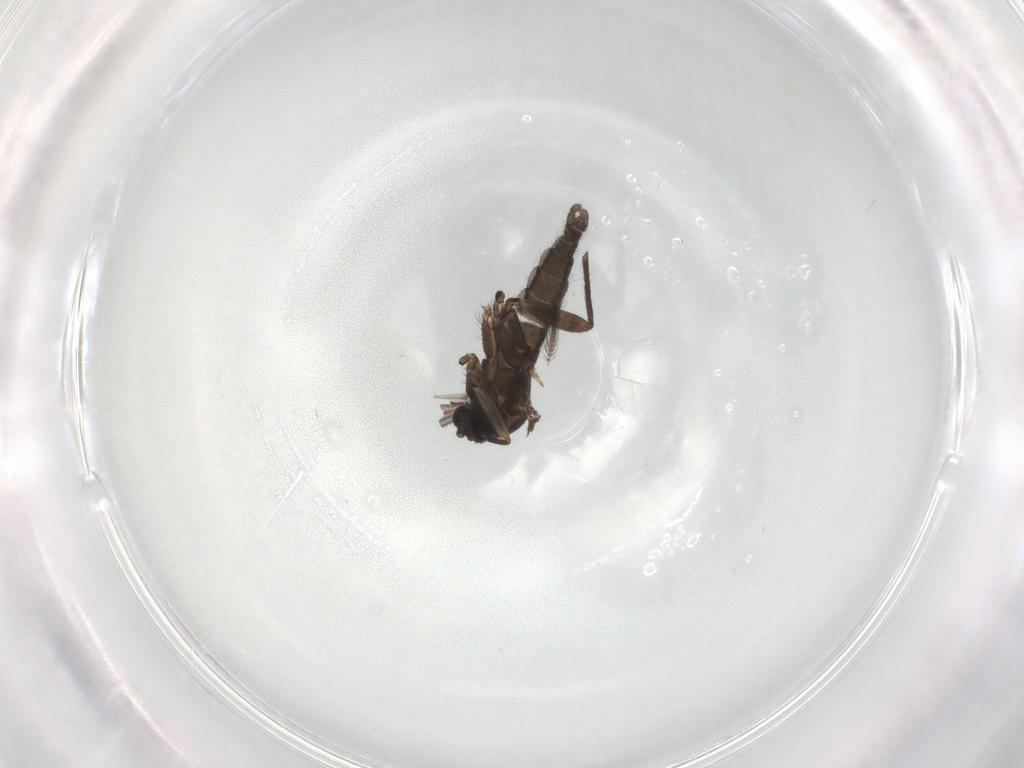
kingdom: Animalia
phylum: Arthropoda
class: Insecta
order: Diptera
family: Sciaridae
